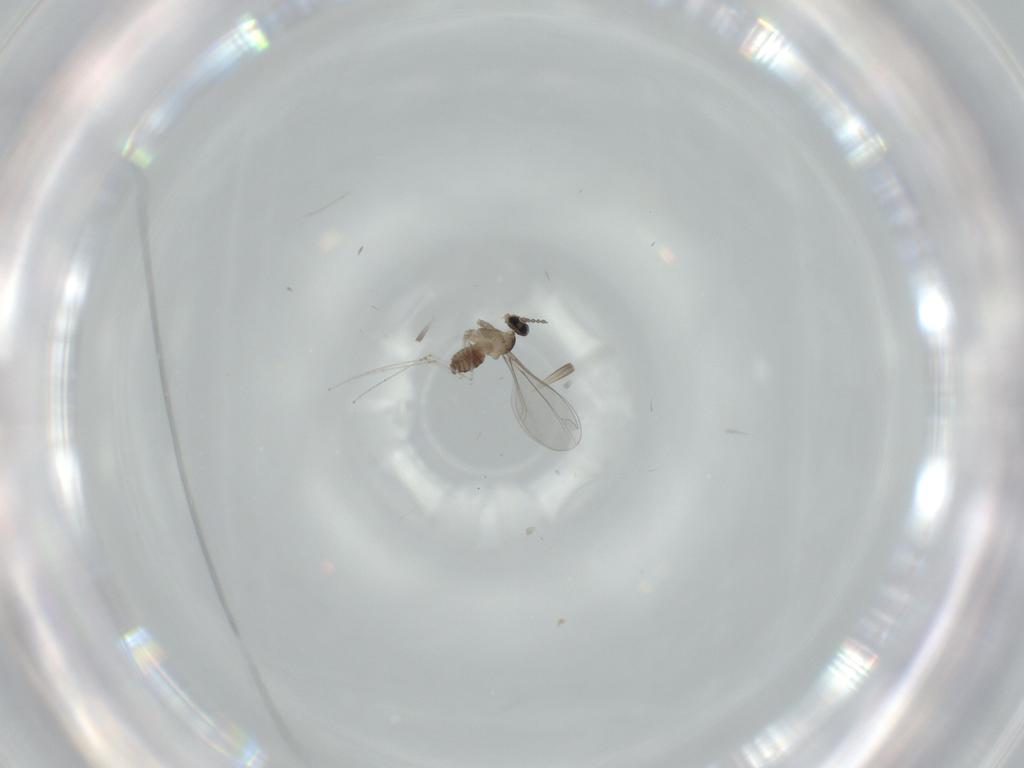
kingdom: Animalia
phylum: Arthropoda
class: Insecta
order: Diptera
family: Cecidomyiidae
